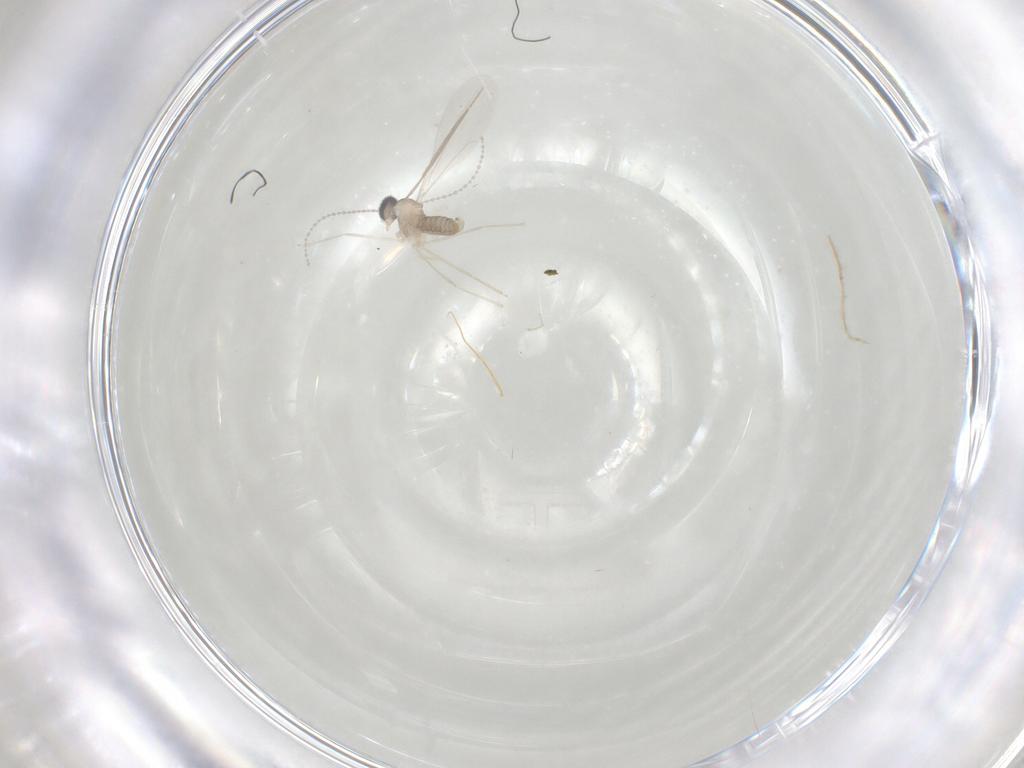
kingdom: Animalia
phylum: Arthropoda
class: Insecta
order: Diptera
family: Cecidomyiidae
